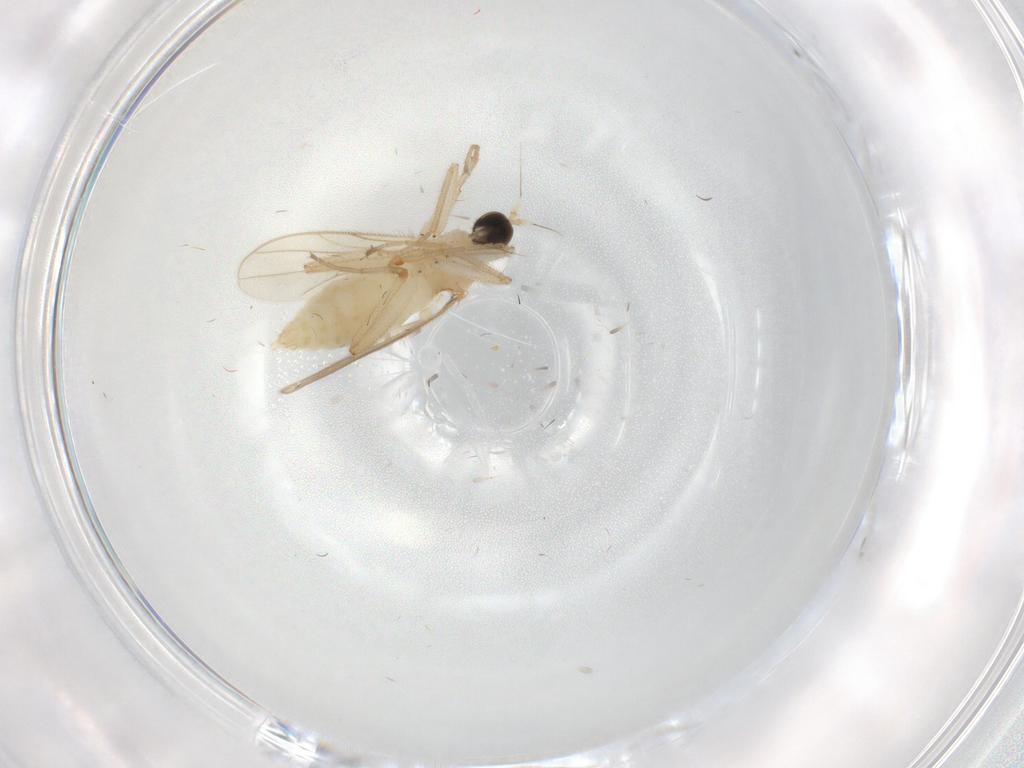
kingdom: Animalia
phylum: Arthropoda
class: Insecta
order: Diptera
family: Hybotidae
